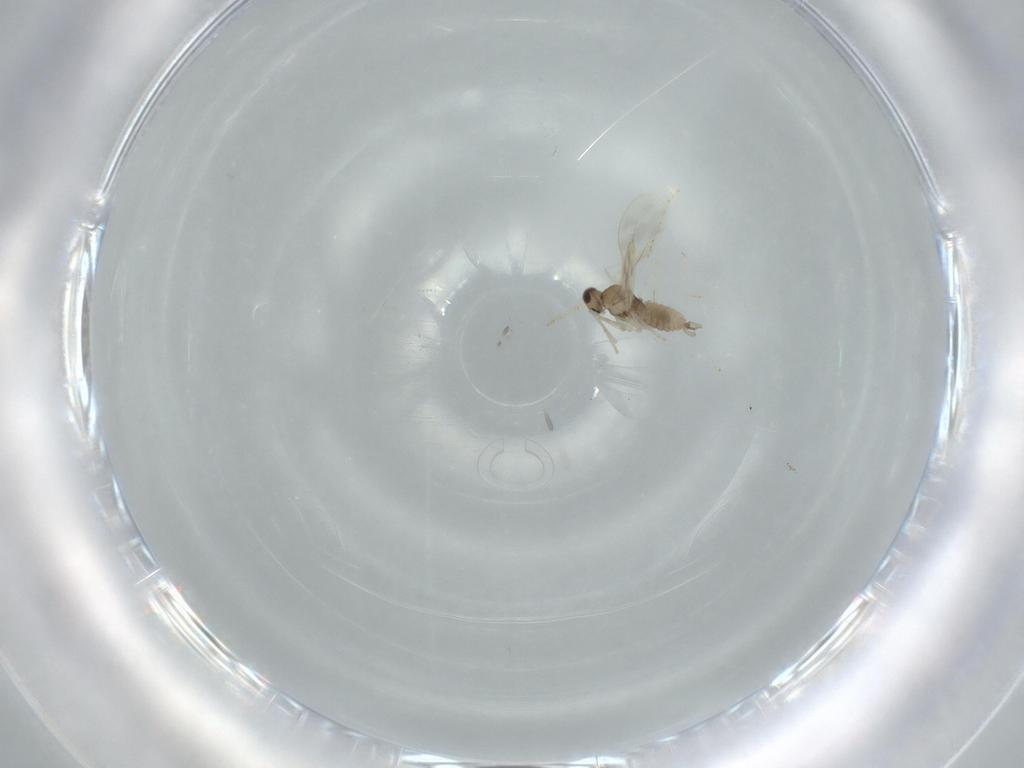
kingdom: Animalia
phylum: Arthropoda
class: Insecta
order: Diptera
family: Cecidomyiidae
